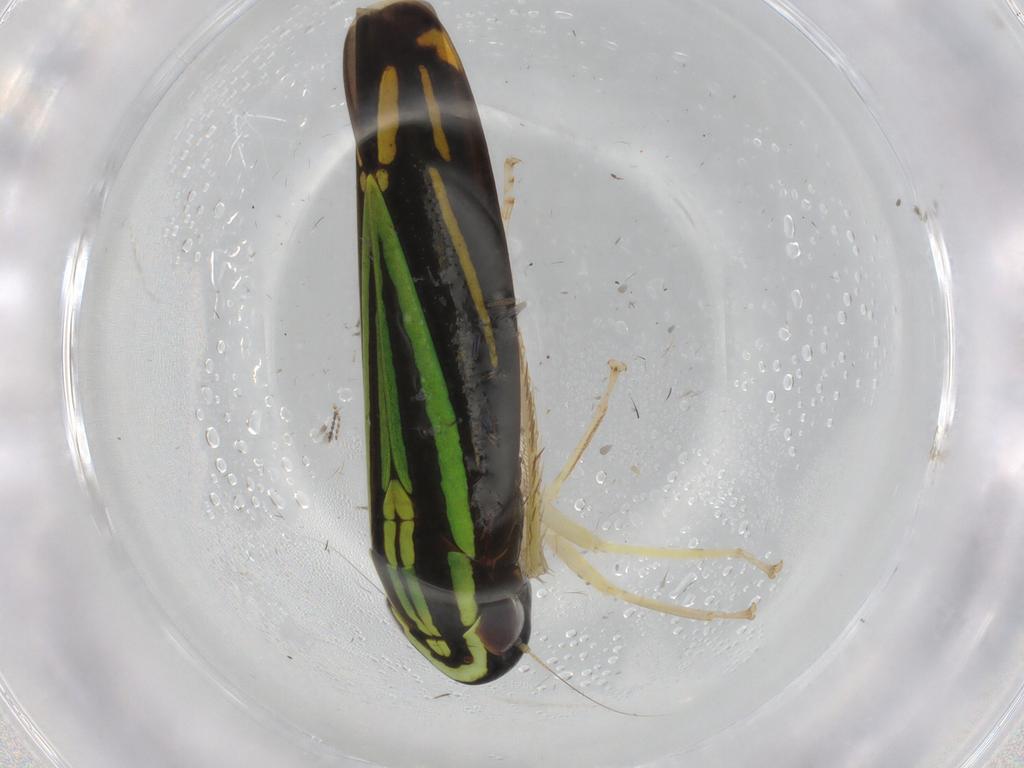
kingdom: Animalia
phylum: Arthropoda
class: Insecta
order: Hemiptera
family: Cicadellidae
